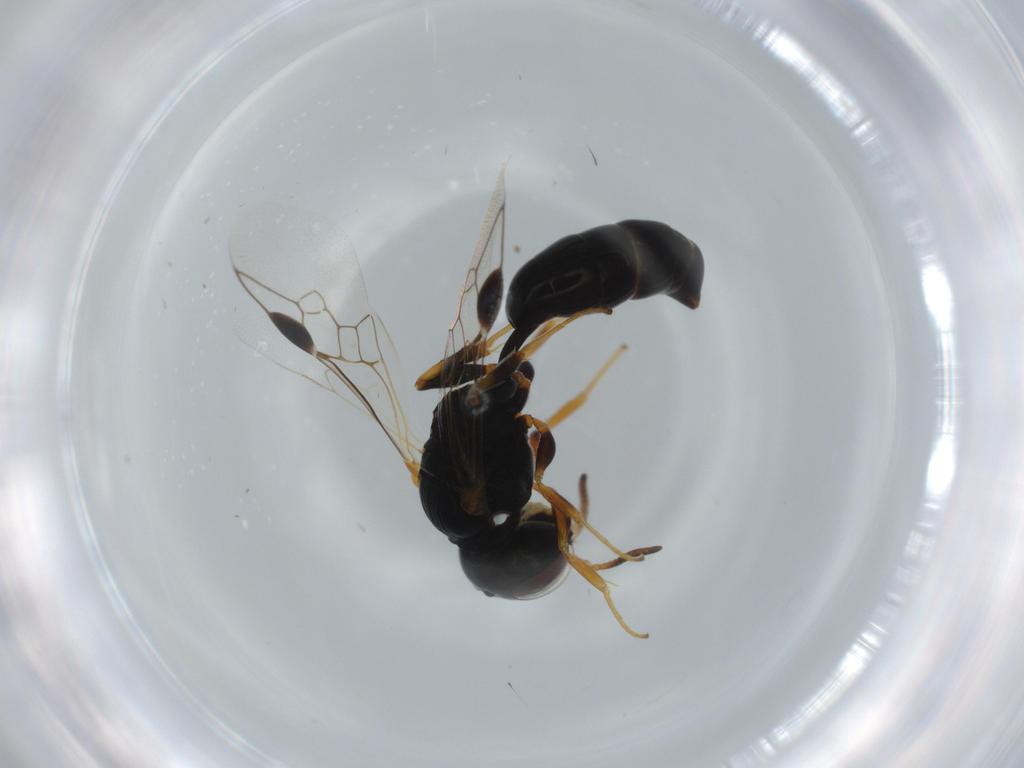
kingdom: Animalia
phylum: Arthropoda
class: Insecta
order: Hymenoptera
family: Pemphredonidae
